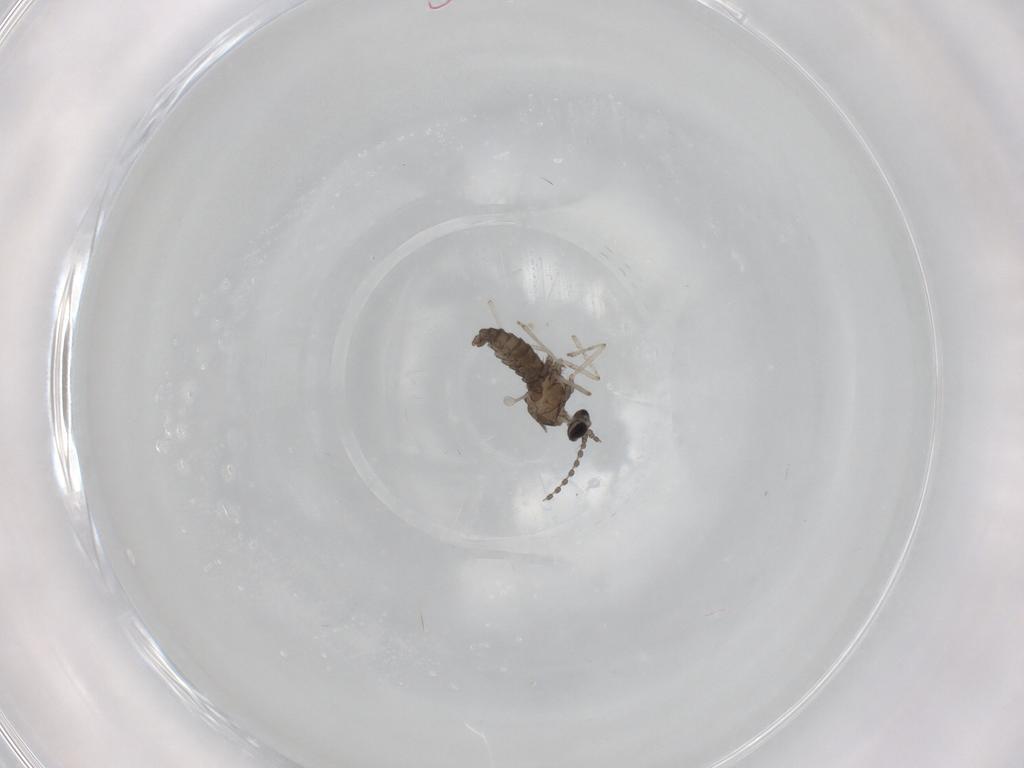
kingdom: Animalia
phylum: Arthropoda
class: Insecta
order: Diptera
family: Cecidomyiidae
